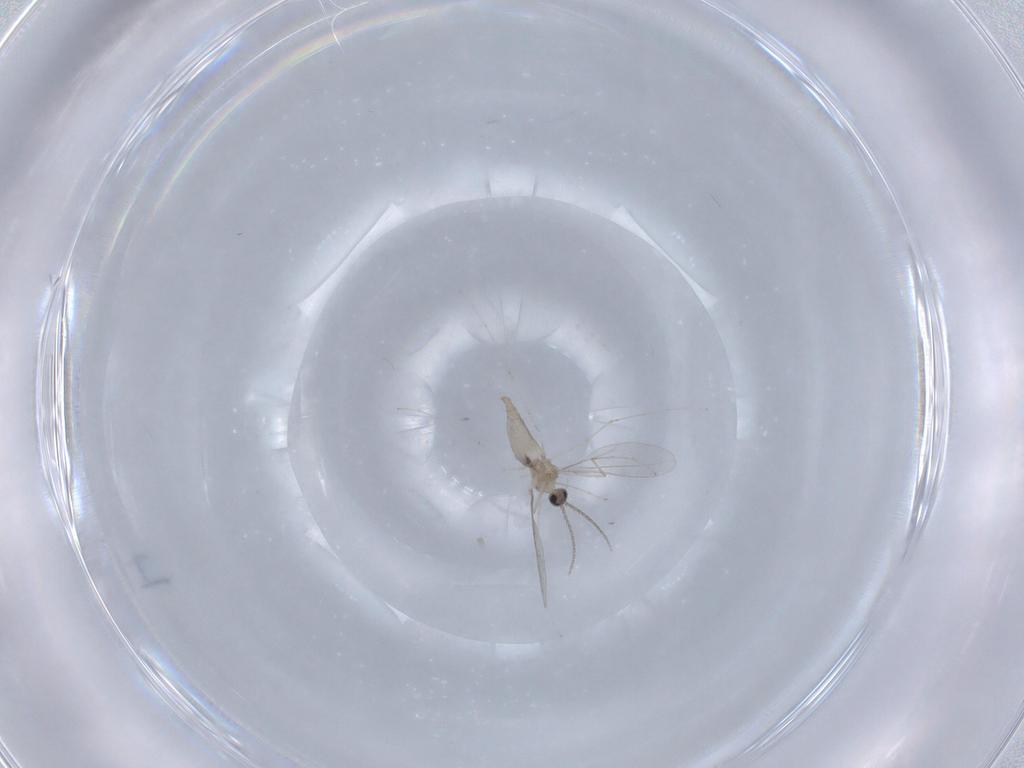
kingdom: Animalia
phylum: Arthropoda
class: Insecta
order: Diptera
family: Cecidomyiidae
